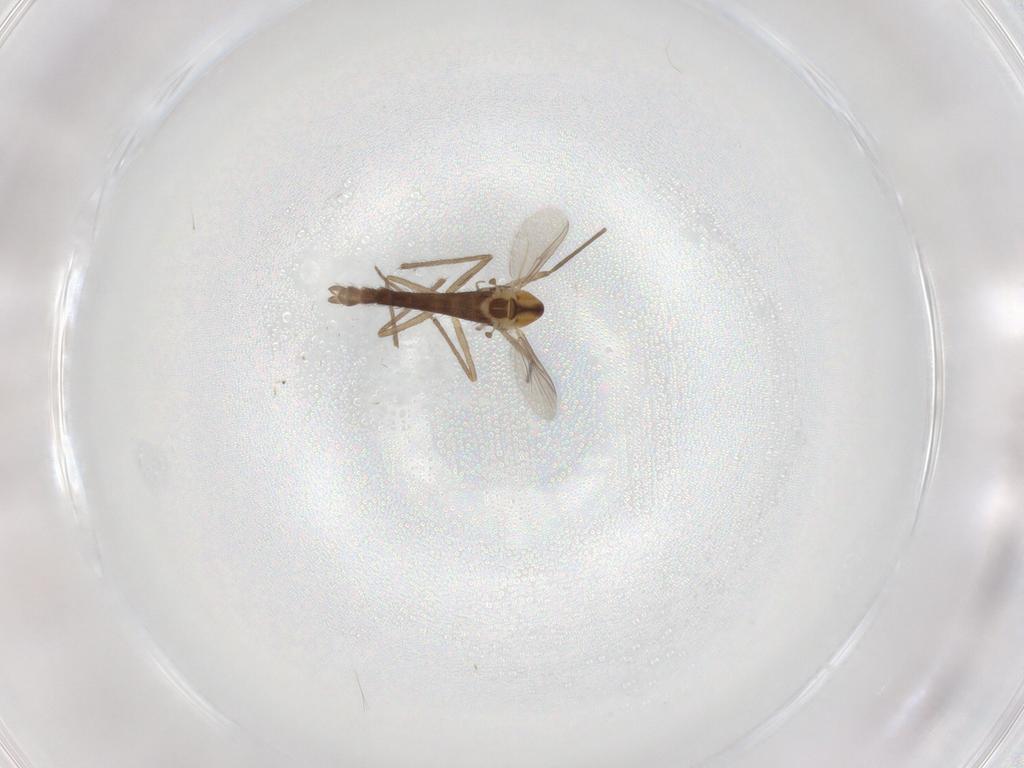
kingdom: Animalia
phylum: Arthropoda
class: Insecta
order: Diptera
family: Chironomidae
